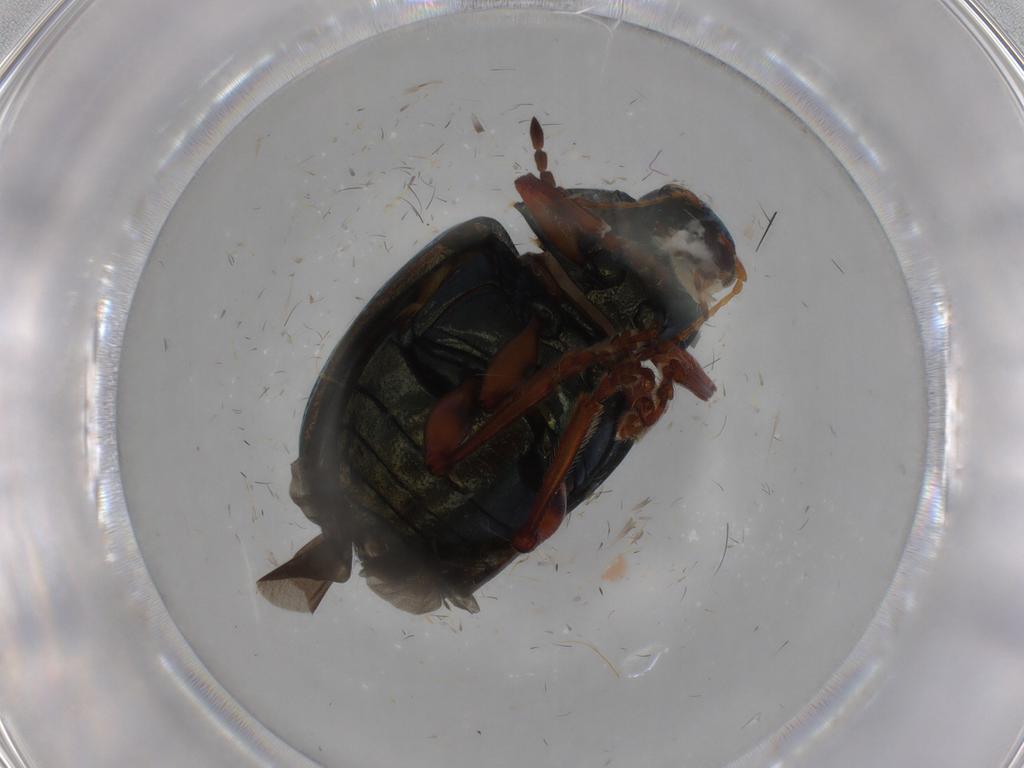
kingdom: Animalia
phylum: Arthropoda
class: Insecta
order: Coleoptera
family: Chrysomelidae
